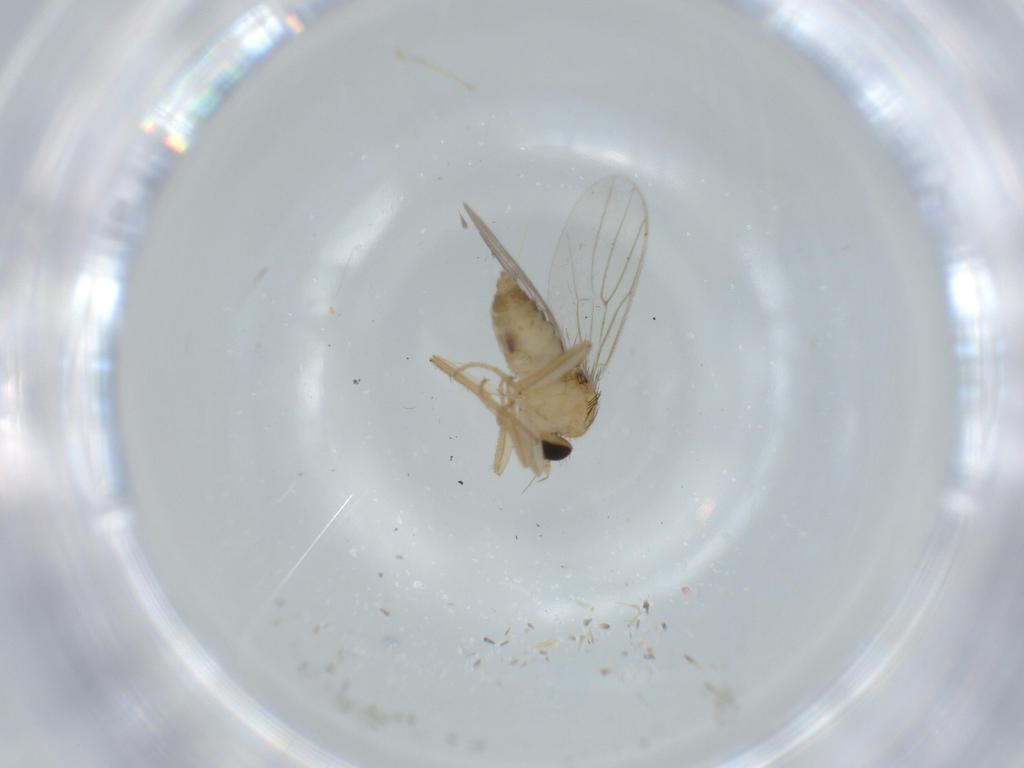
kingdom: Animalia
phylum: Arthropoda
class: Insecta
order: Diptera
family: Hybotidae
